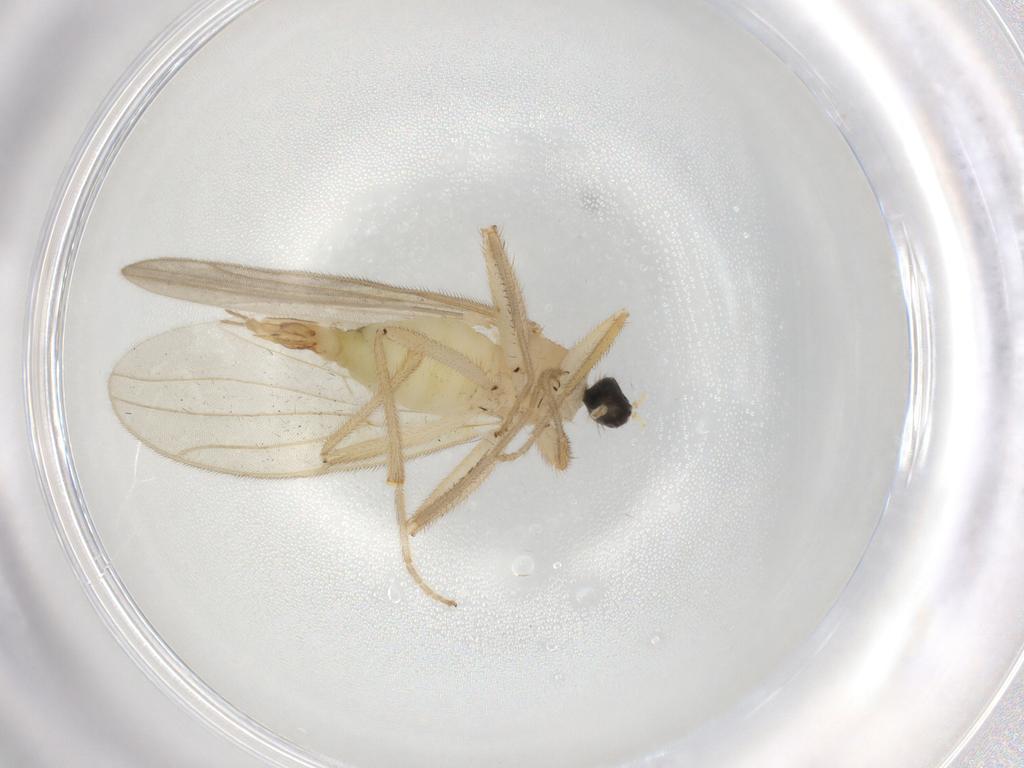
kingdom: Animalia
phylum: Arthropoda
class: Insecta
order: Diptera
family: Hybotidae
